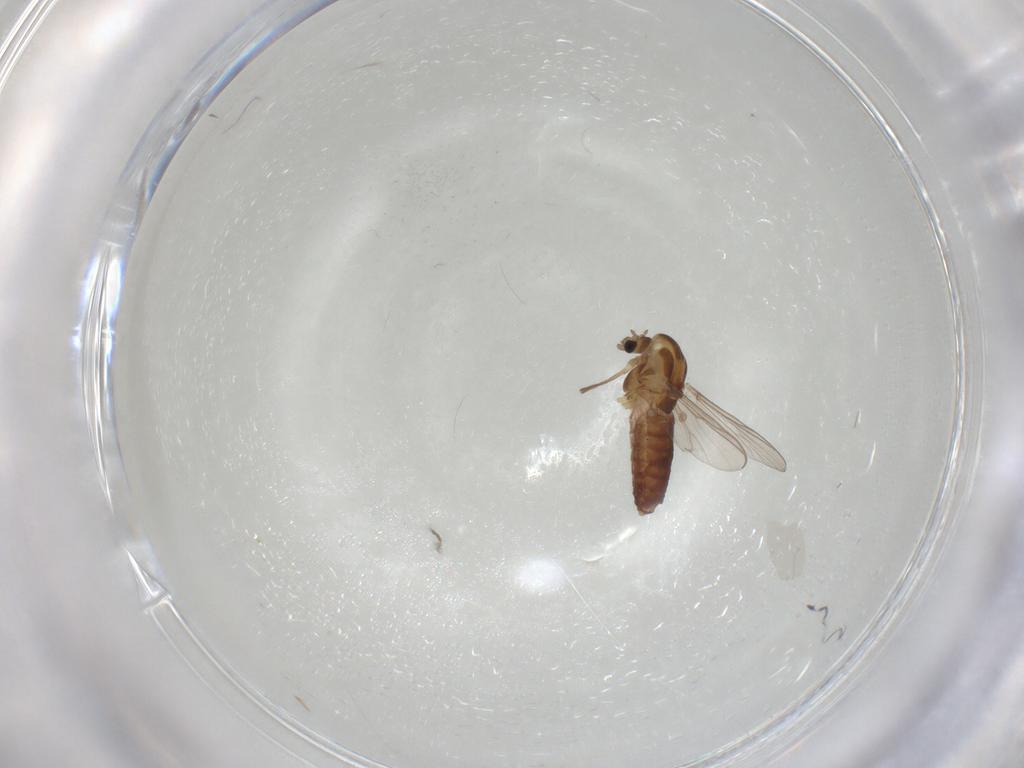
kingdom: Animalia
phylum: Arthropoda
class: Insecta
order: Diptera
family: Chironomidae
